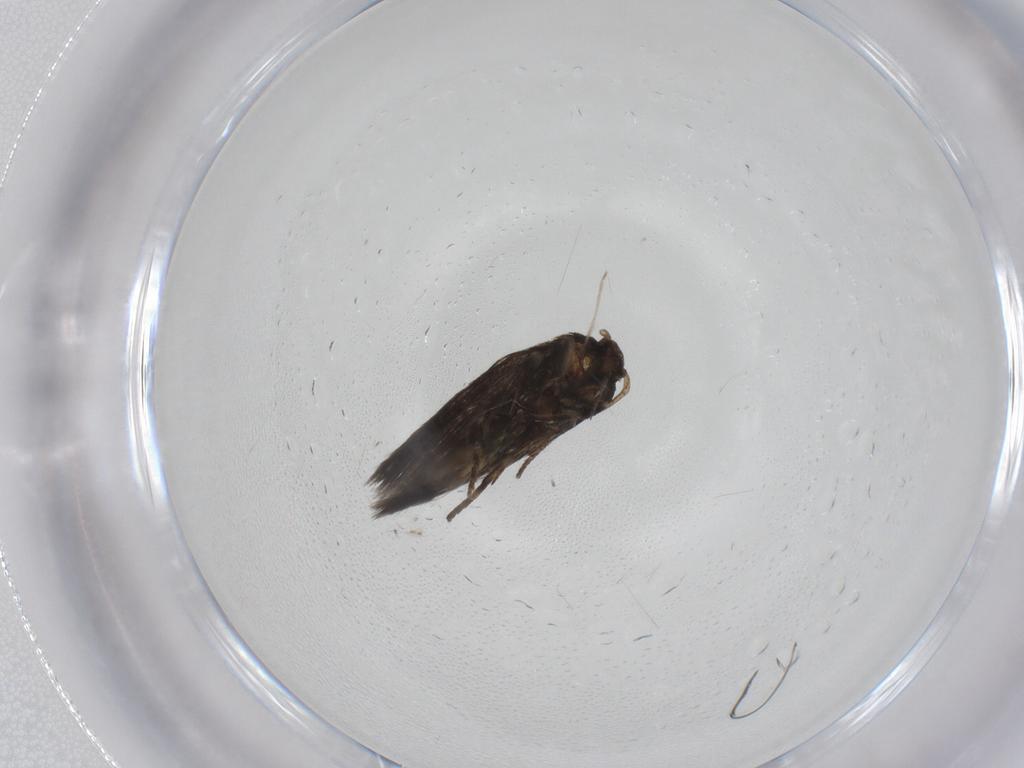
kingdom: Animalia
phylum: Arthropoda
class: Insecta
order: Lepidoptera
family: Elachistidae
